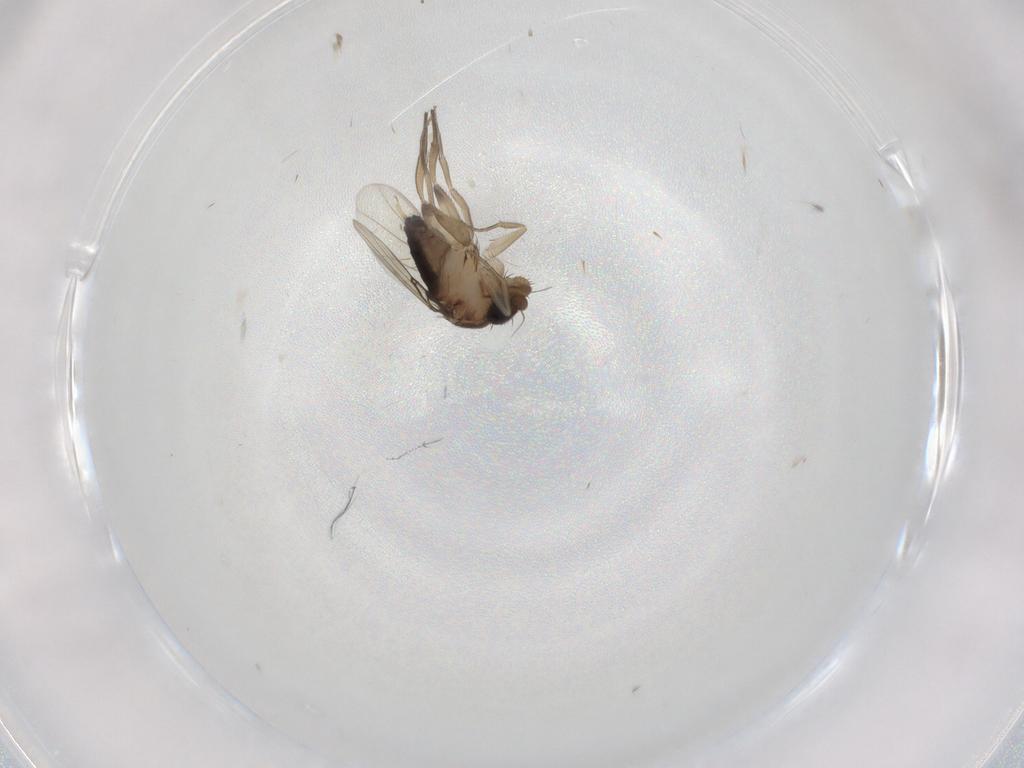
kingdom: Animalia
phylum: Arthropoda
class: Insecta
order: Diptera
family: Phoridae
